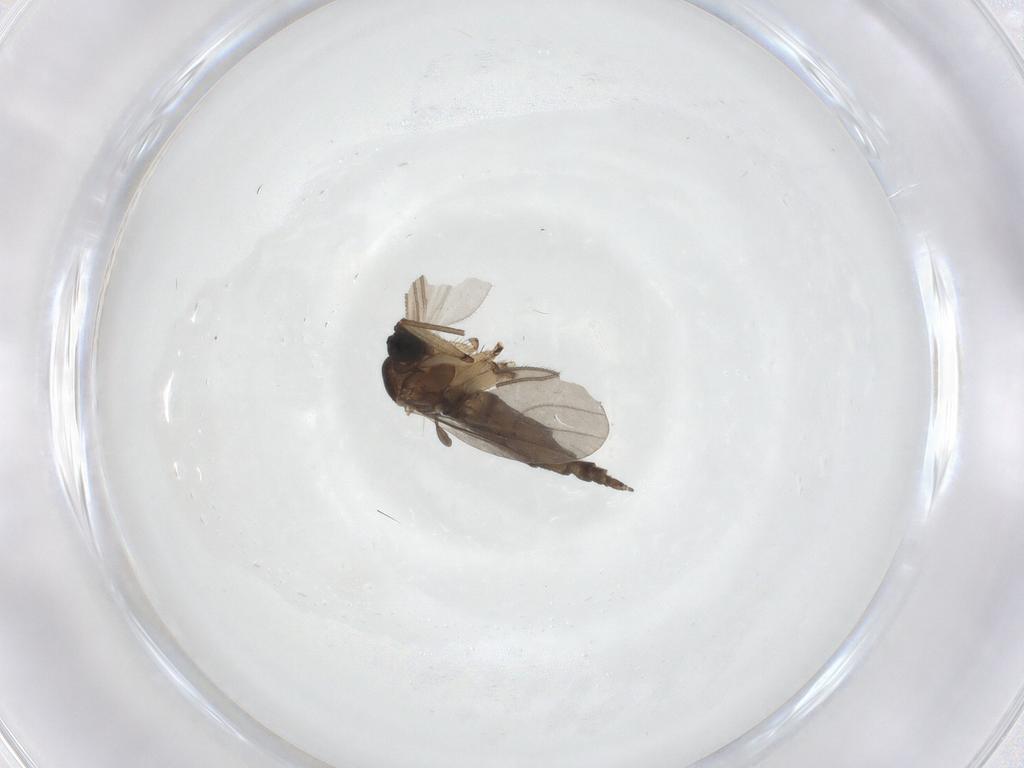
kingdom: Animalia
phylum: Arthropoda
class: Insecta
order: Diptera
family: Sciaridae
